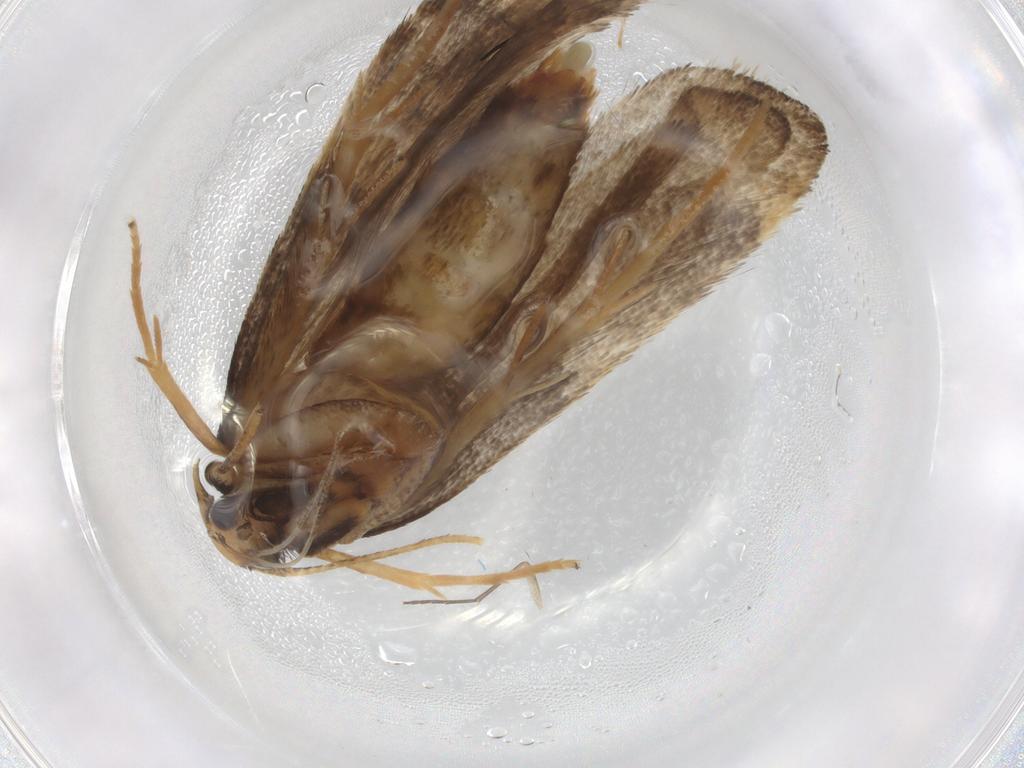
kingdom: Animalia
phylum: Arthropoda
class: Insecta
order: Lepidoptera
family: Lecithoceridae
